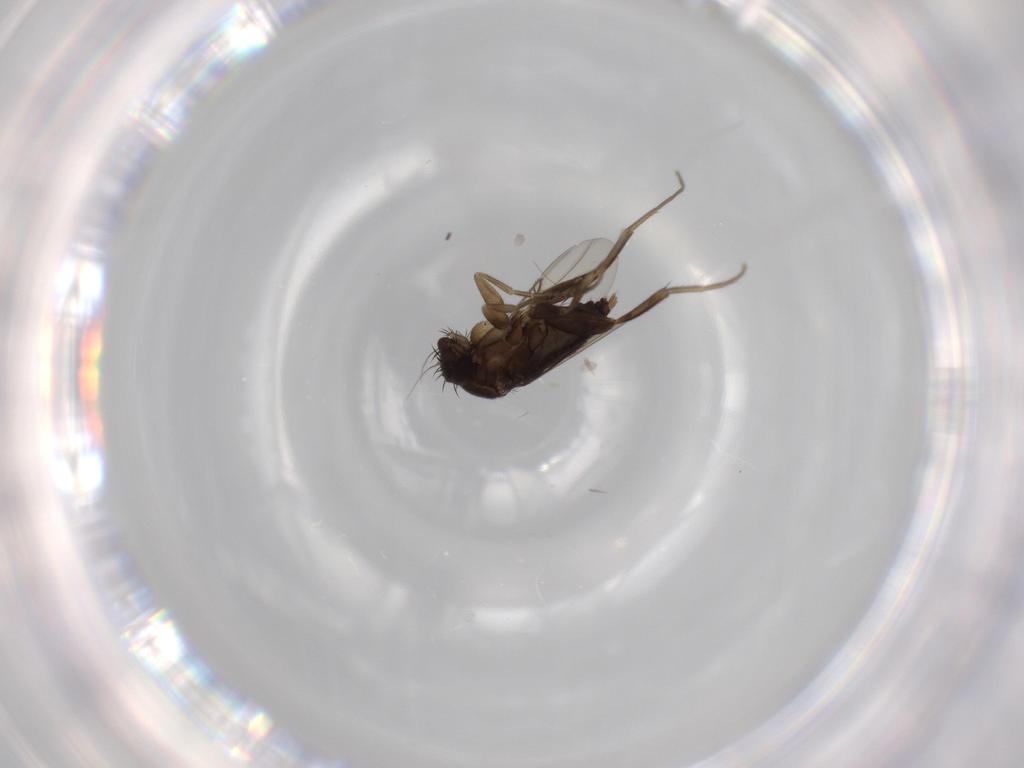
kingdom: Animalia
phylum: Arthropoda
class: Insecta
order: Diptera
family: Phoridae
